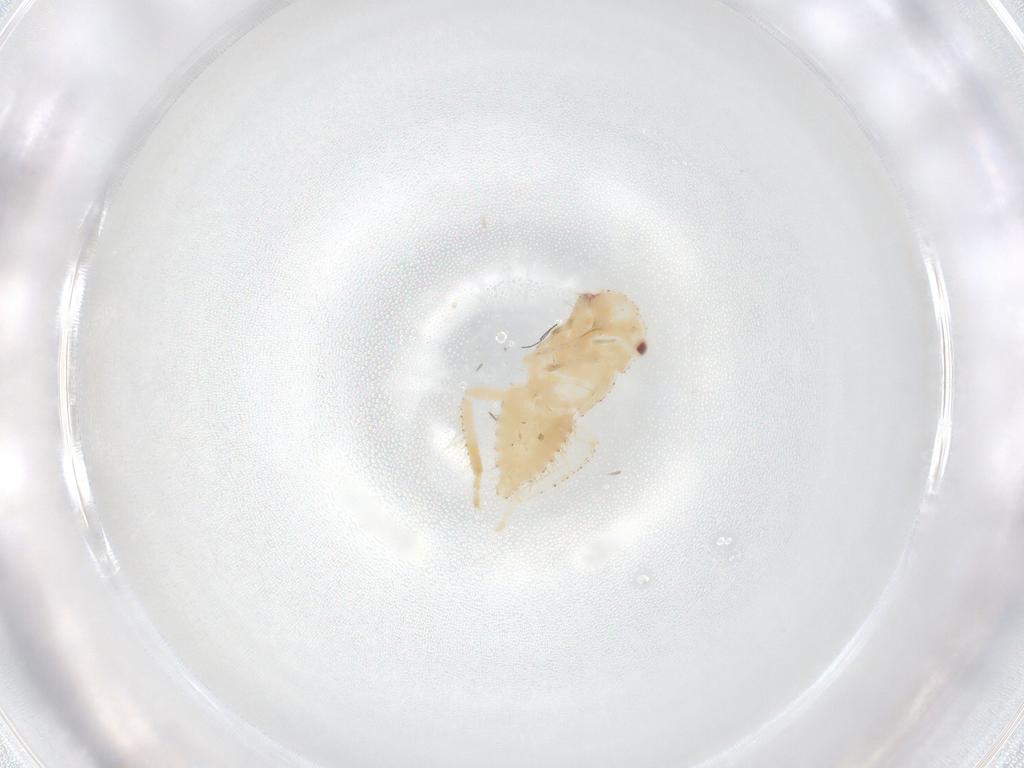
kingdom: Animalia
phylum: Arthropoda
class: Insecta
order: Hemiptera
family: Cicadellidae
